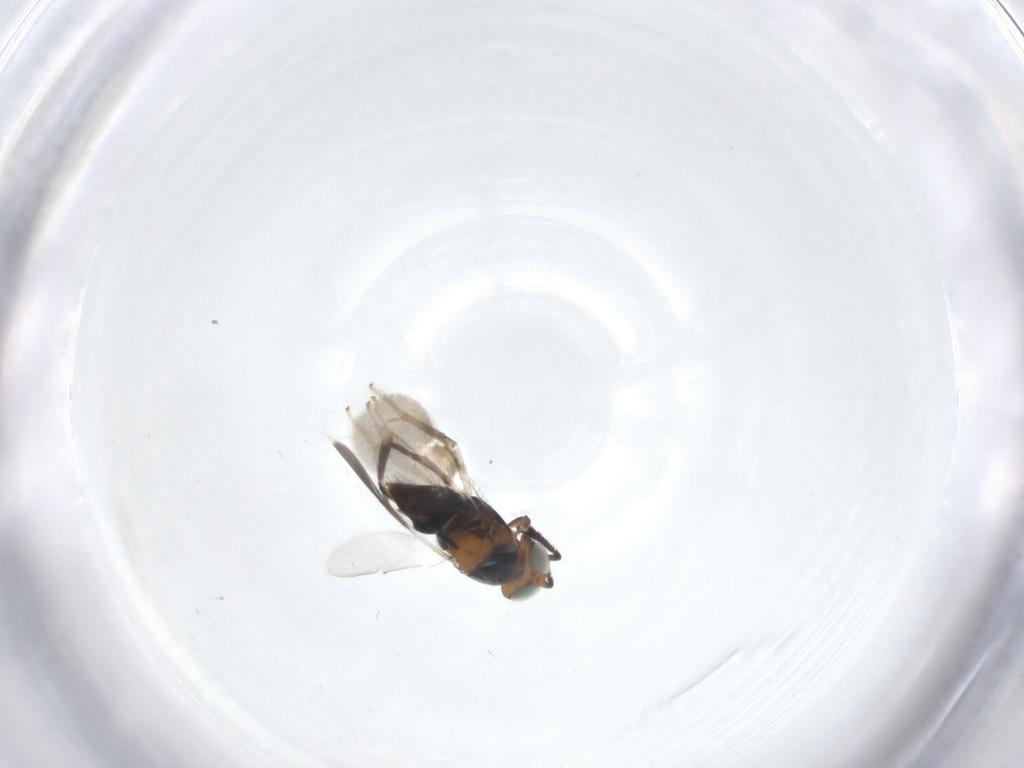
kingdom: Animalia
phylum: Arthropoda
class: Insecta
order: Hymenoptera
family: Encyrtidae
